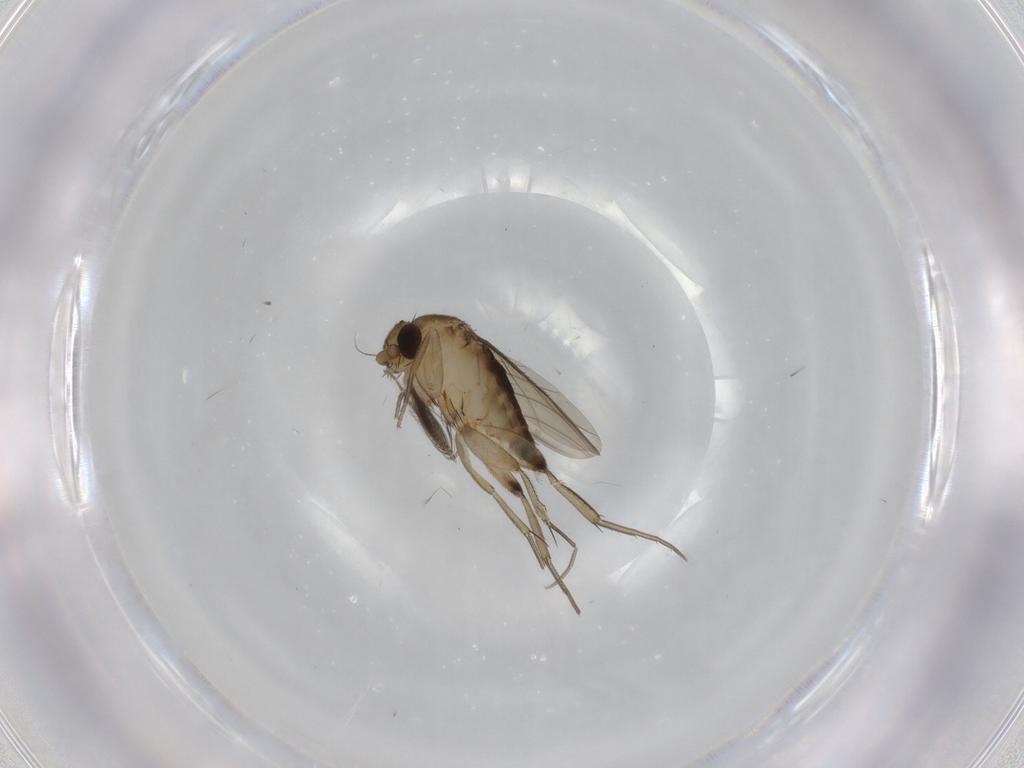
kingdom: Animalia
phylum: Arthropoda
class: Insecta
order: Diptera
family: Ceratopogonidae
